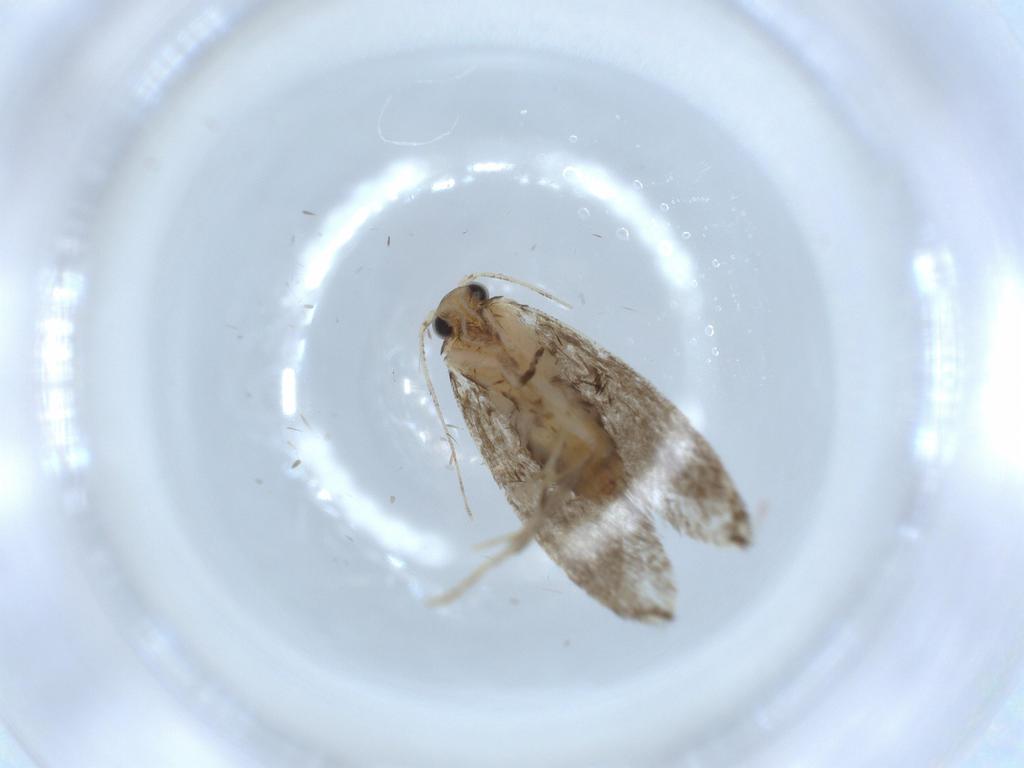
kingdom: Animalia
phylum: Arthropoda
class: Insecta
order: Lepidoptera
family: Tineidae
